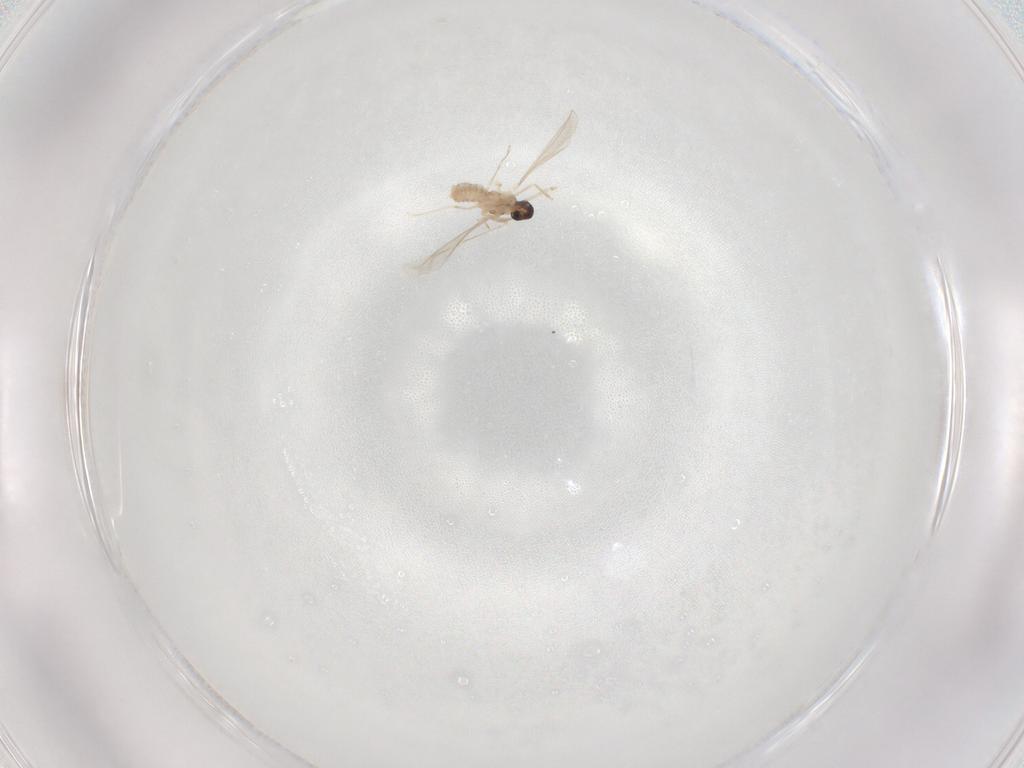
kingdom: Animalia
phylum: Arthropoda
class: Insecta
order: Diptera
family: Cecidomyiidae
